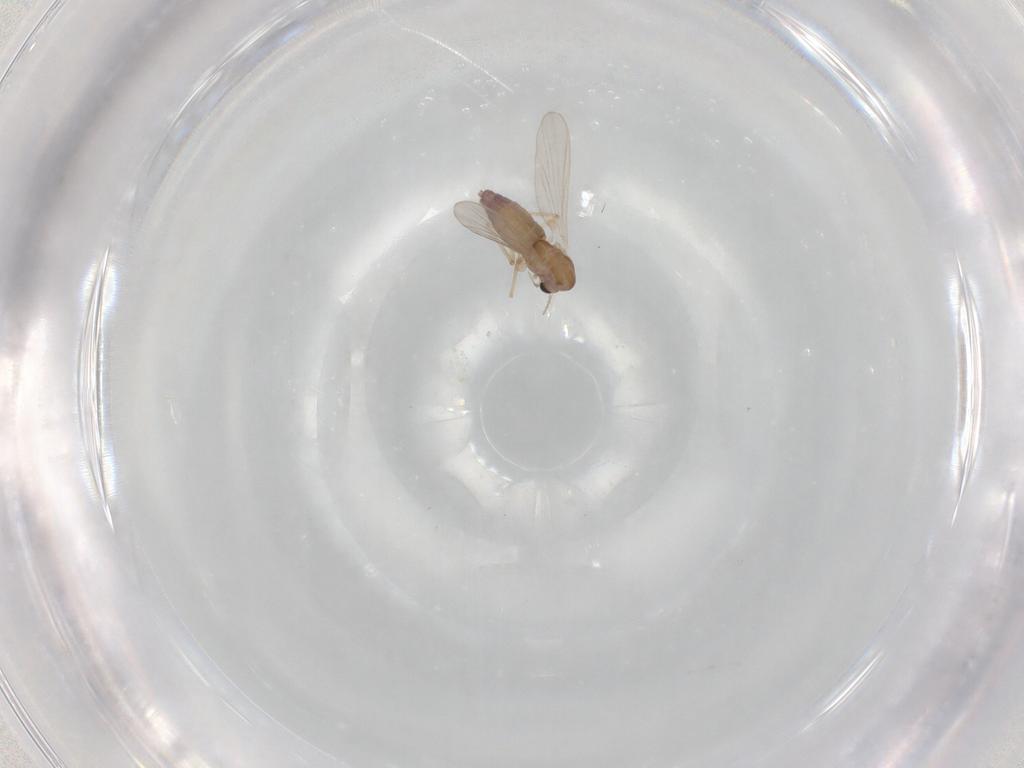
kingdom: Animalia
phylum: Arthropoda
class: Insecta
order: Diptera
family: Chironomidae
